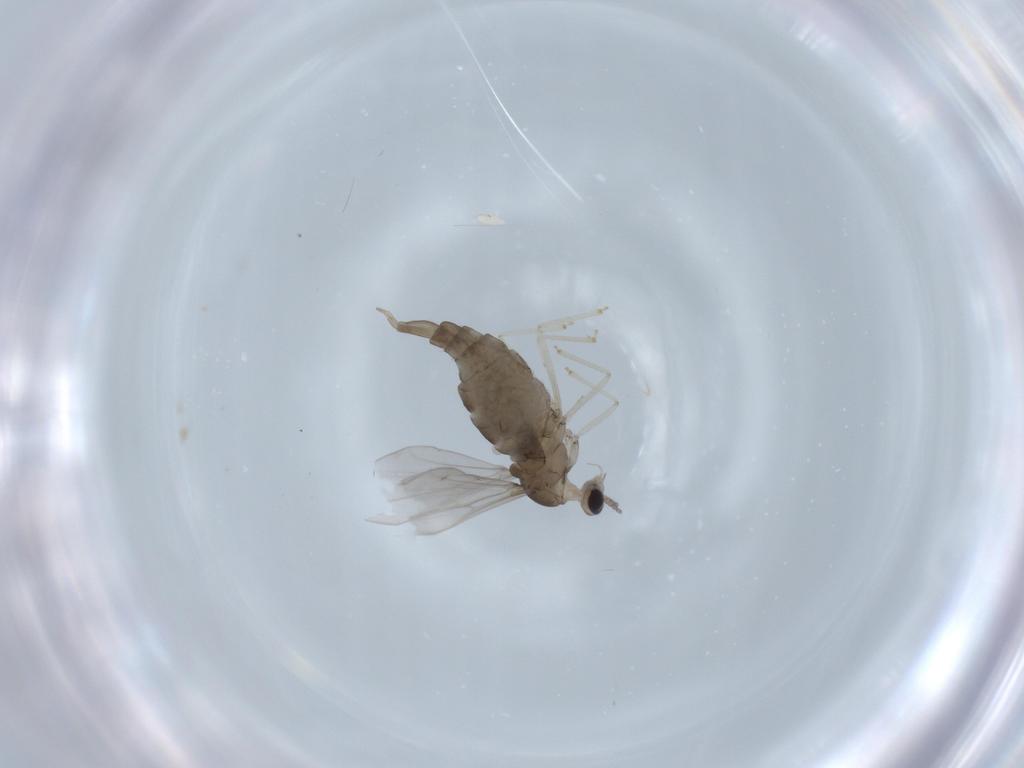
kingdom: Animalia
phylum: Arthropoda
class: Insecta
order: Diptera
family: Cecidomyiidae
